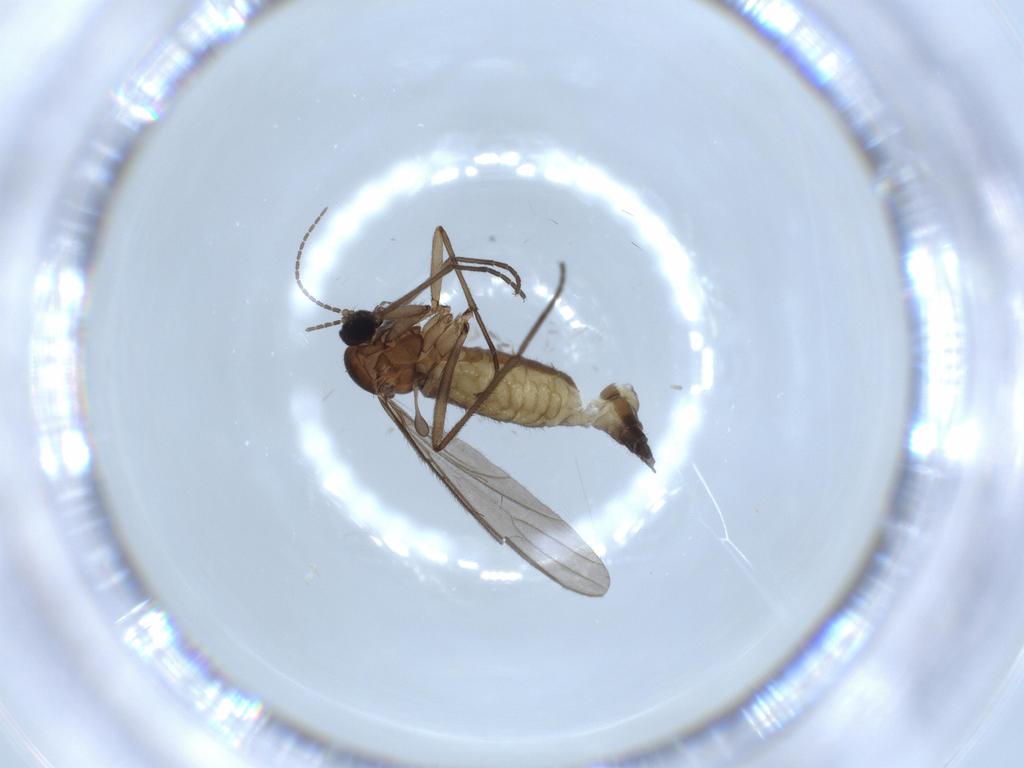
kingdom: Animalia
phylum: Arthropoda
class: Insecta
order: Diptera
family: Sciaridae
